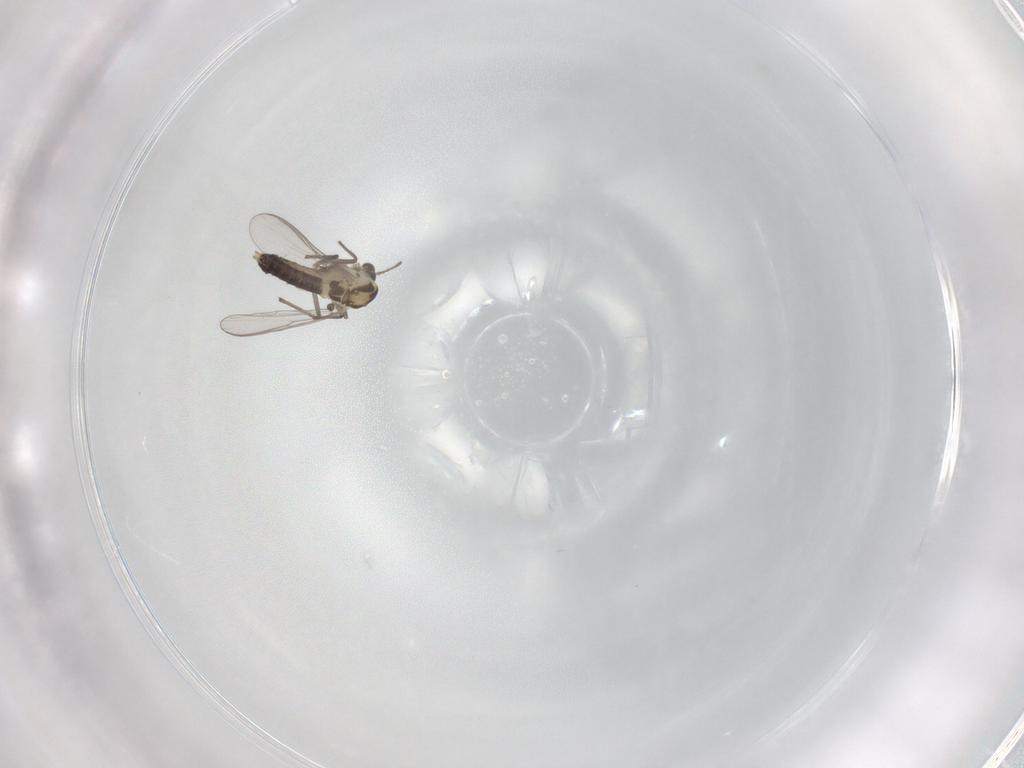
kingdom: Animalia
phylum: Arthropoda
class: Insecta
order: Diptera
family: Chironomidae
